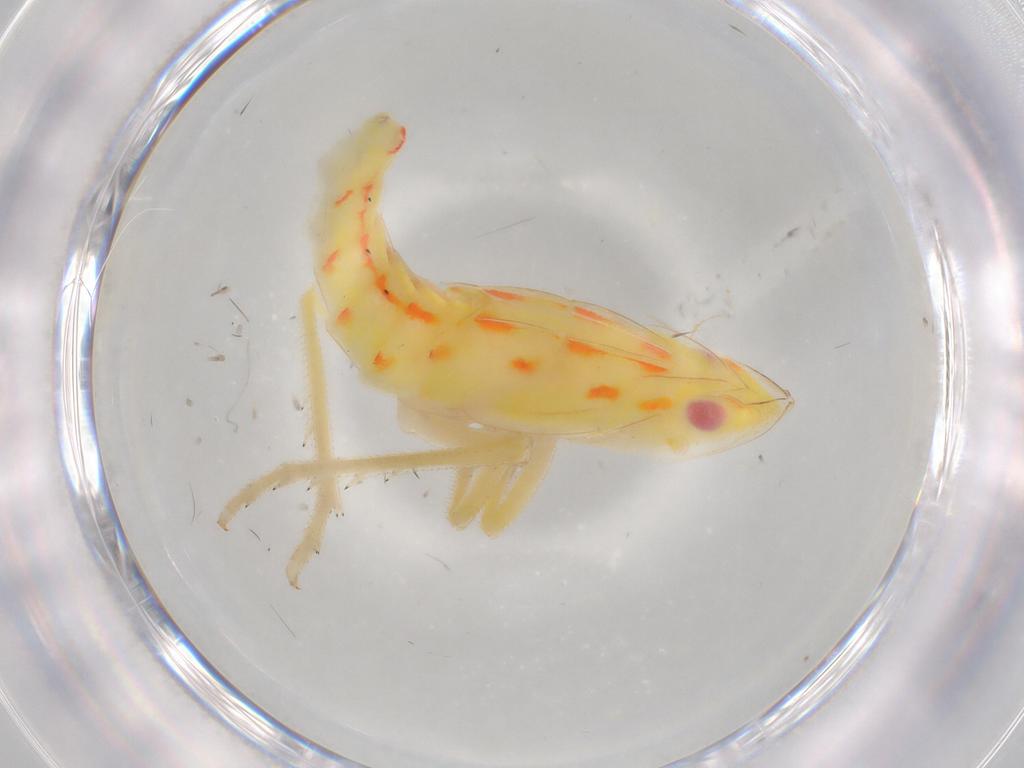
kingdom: Animalia
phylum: Arthropoda
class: Insecta
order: Hemiptera
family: Tropiduchidae
